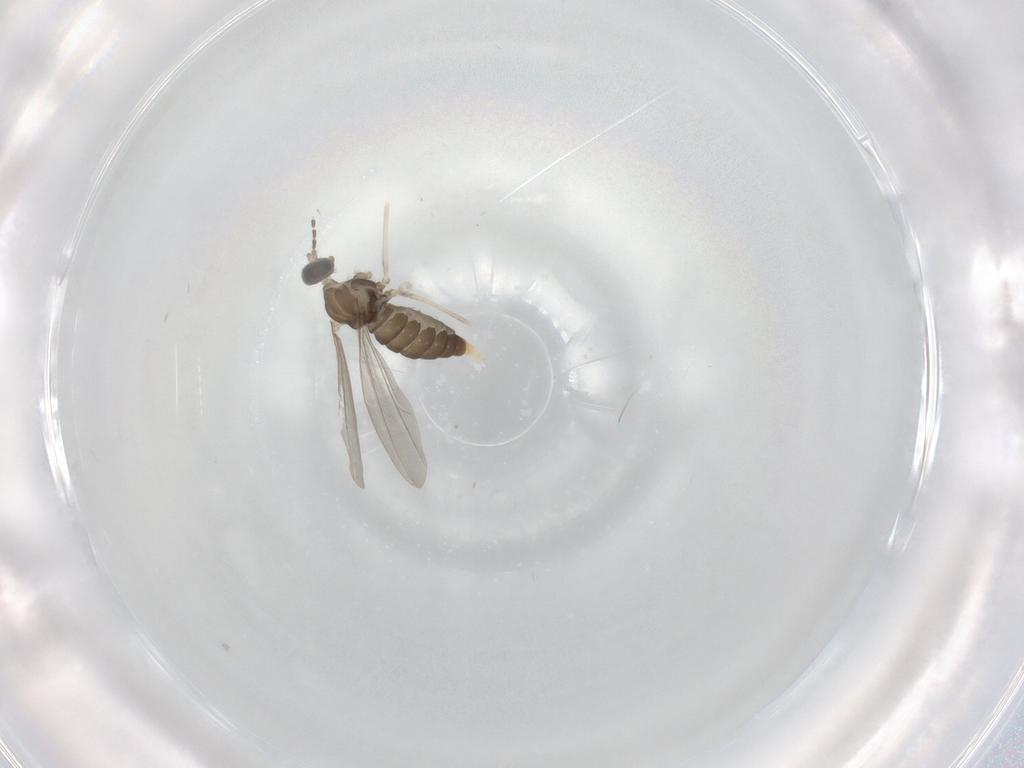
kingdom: Animalia
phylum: Arthropoda
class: Insecta
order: Diptera
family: Cecidomyiidae
